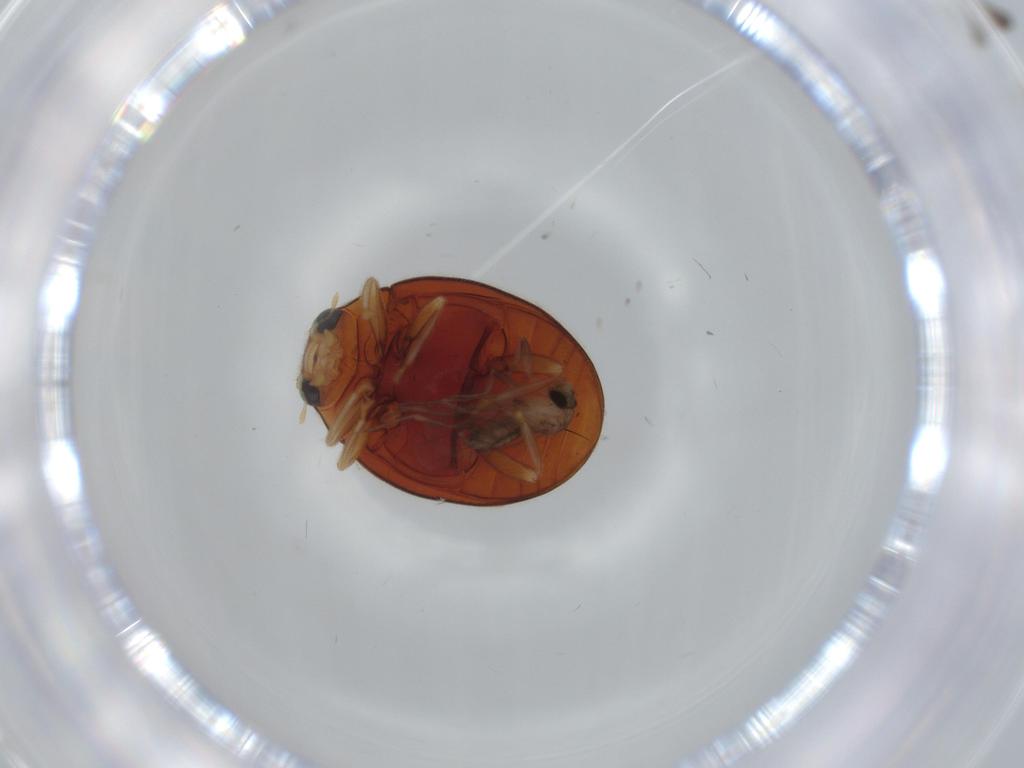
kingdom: Animalia
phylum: Arthropoda
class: Insecta
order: Coleoptera
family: Coccinellidae
